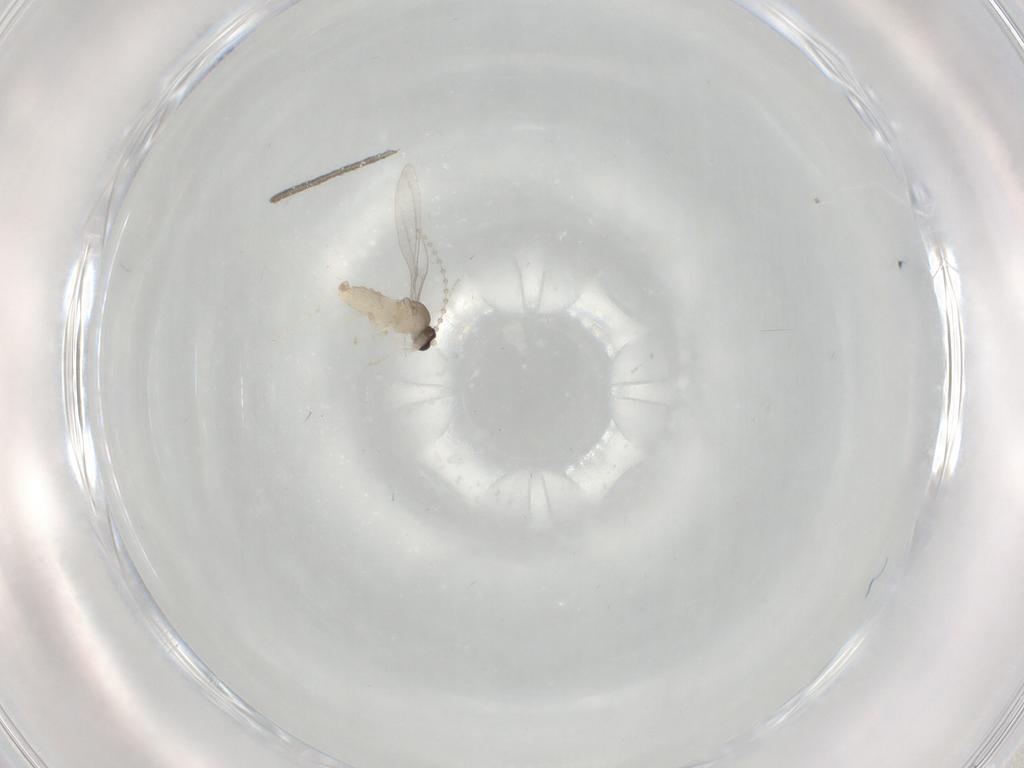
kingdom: Animalia
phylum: Arthropoda
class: Insecta
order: Diptera
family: Cecidomyiidae
